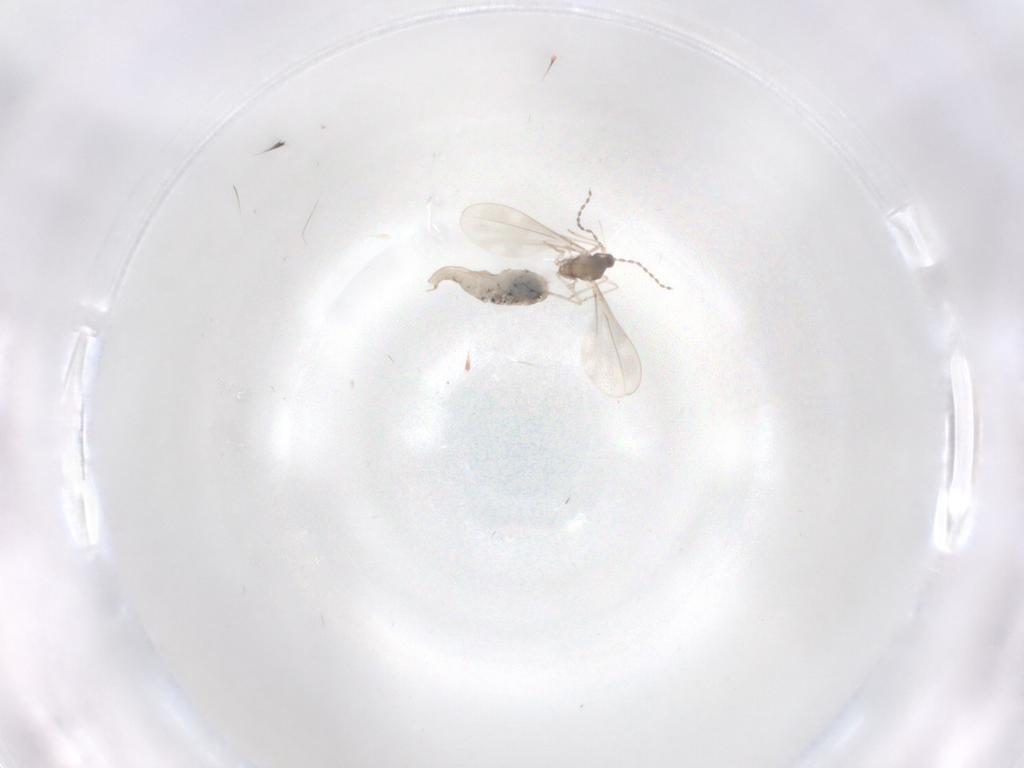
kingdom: Animalia
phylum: Arthropoda
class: Insecta
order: Diptera
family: Cecidomyiidae
